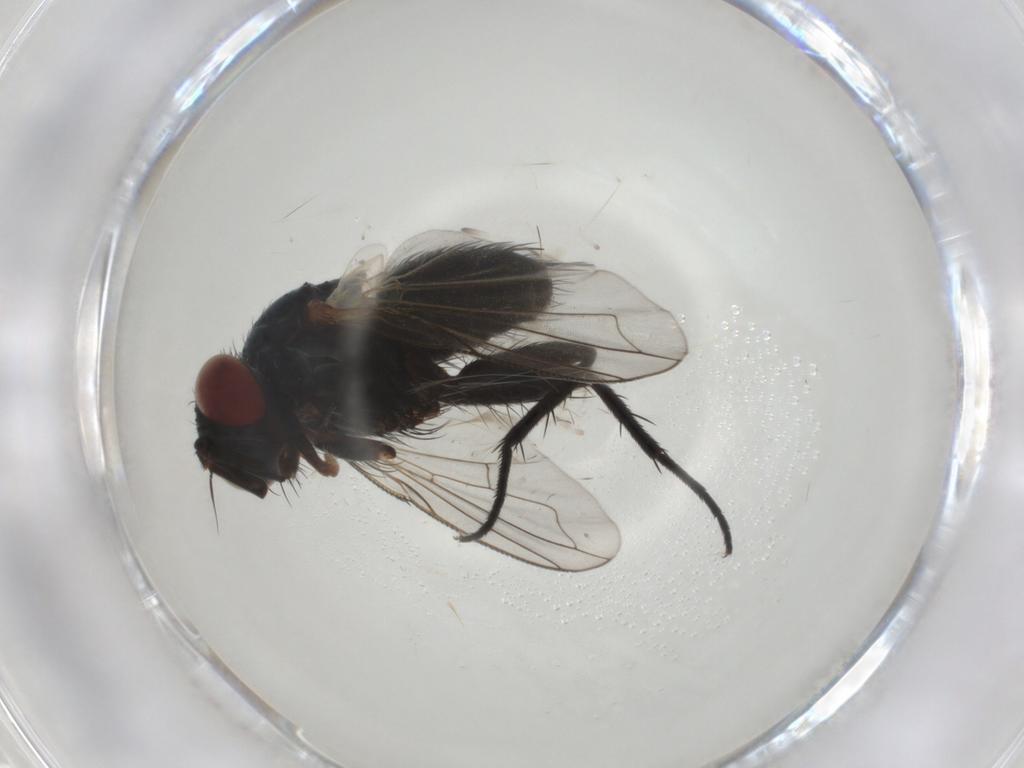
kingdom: Animalia
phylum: Arthropoda
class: Insecta
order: Diptera
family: Tachinidae
